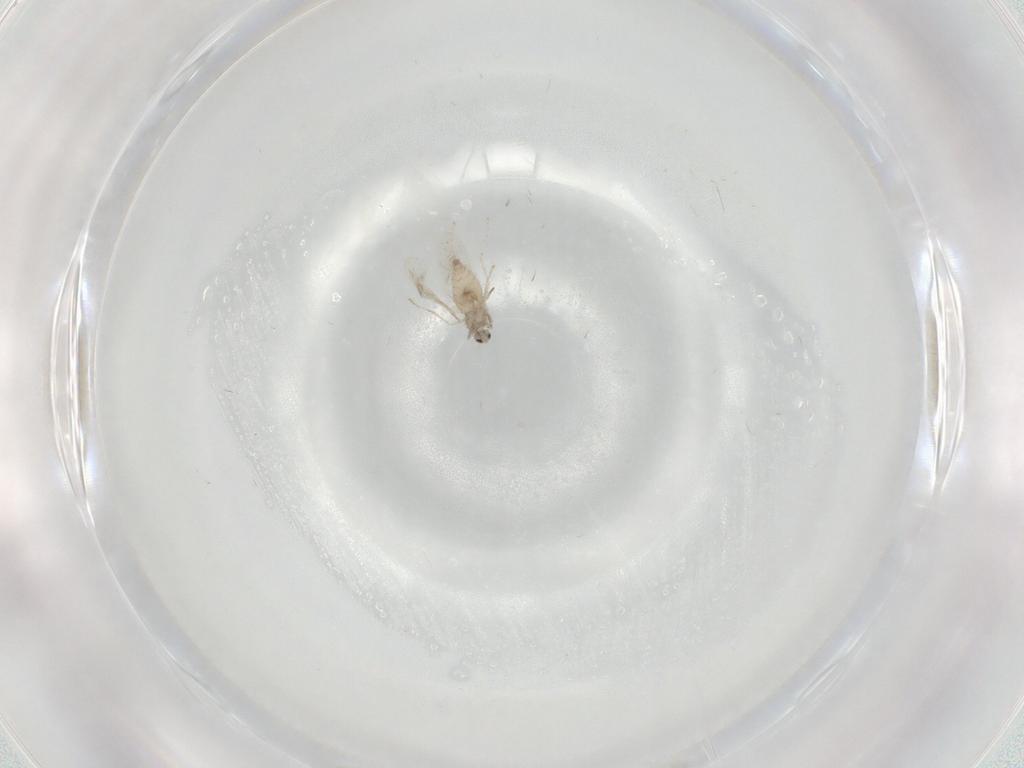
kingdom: Animalia
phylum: Arthropoda
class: Insecta
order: Diptera
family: Cecidomyiidae
